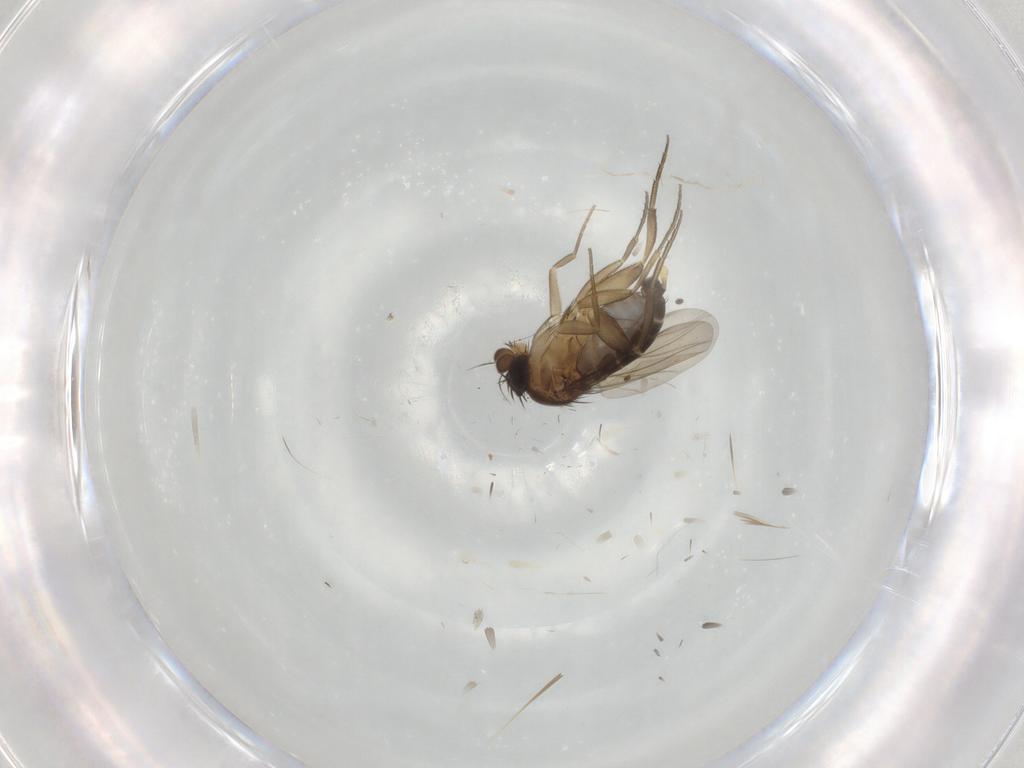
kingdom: Animalia
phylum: Arthropoda
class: Insecta
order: Diptera
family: Phoridae
